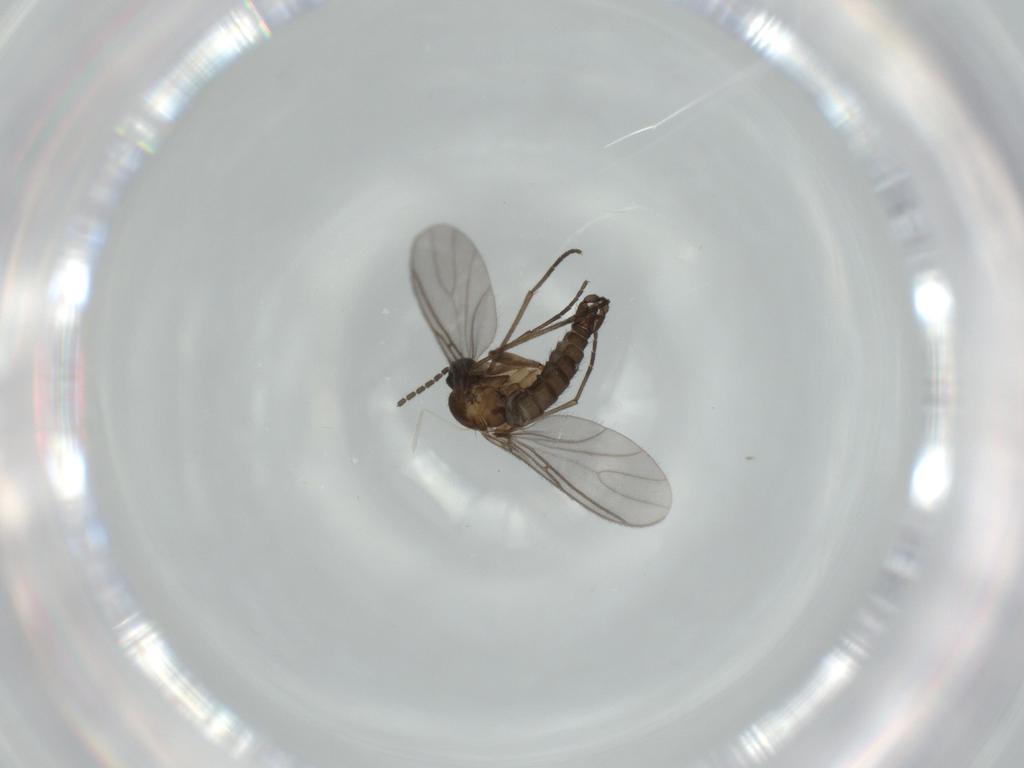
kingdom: Animalia
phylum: Arthropoda
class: Insecta
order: Diptera
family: Sciaridae
